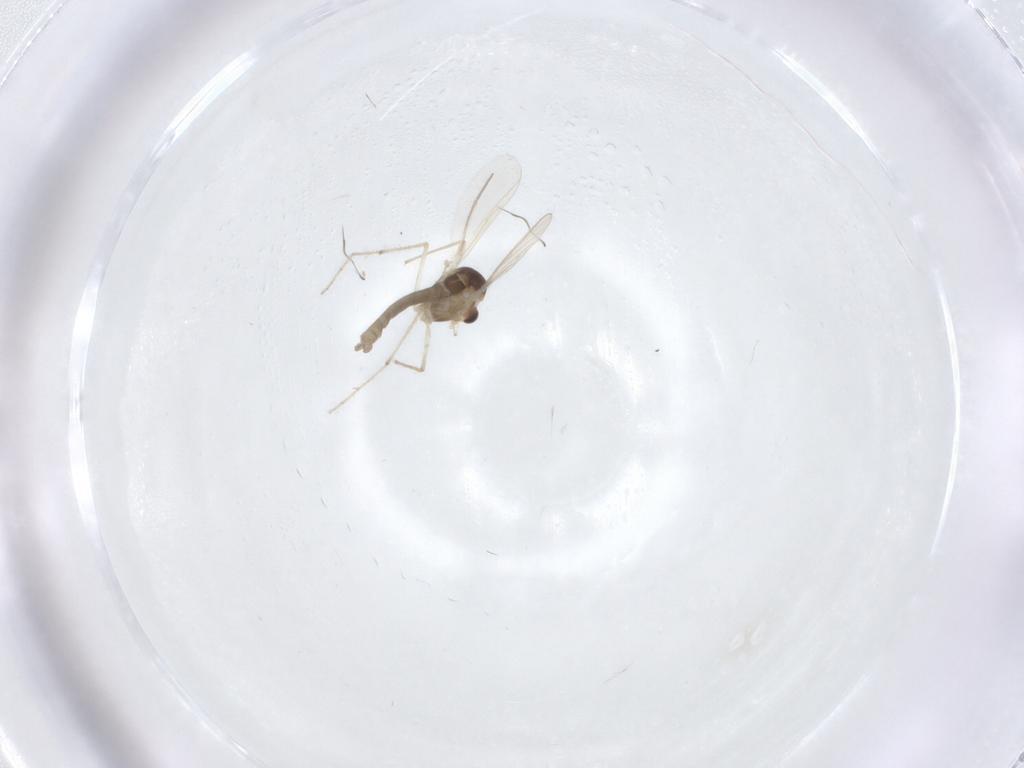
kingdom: Animalia
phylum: Arthropoda
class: Insecta
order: Diptera
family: Chironomidae
